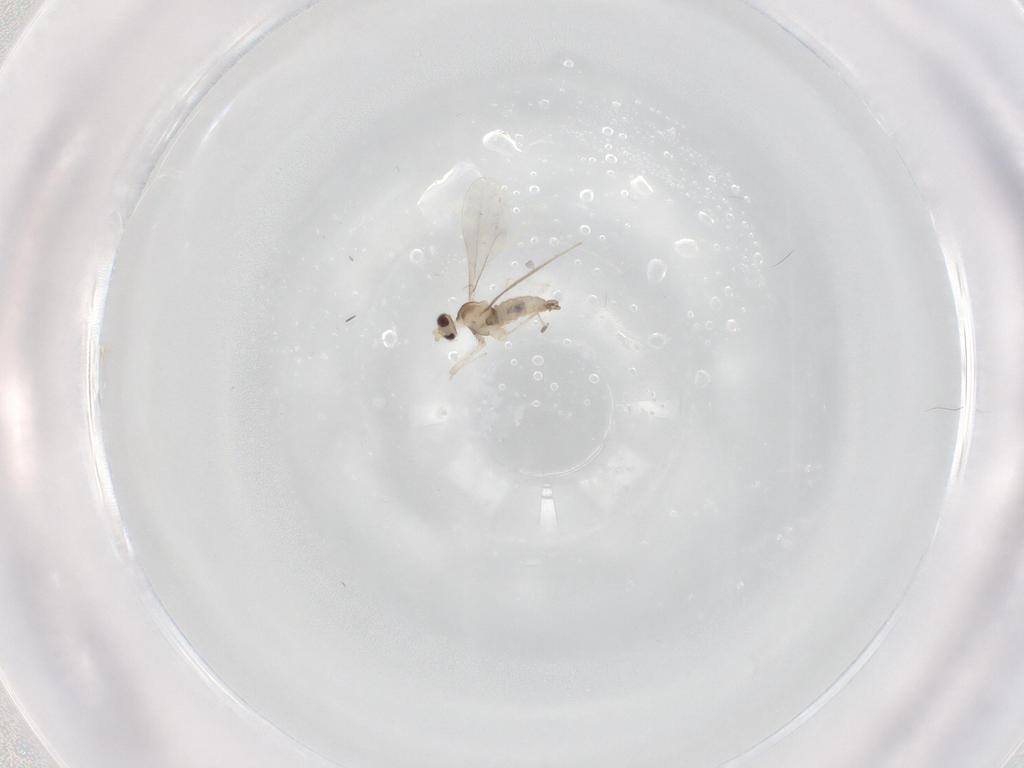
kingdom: Animalia
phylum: Arthropoda
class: Insecta
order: Diptera
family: Cecidomyiidae
